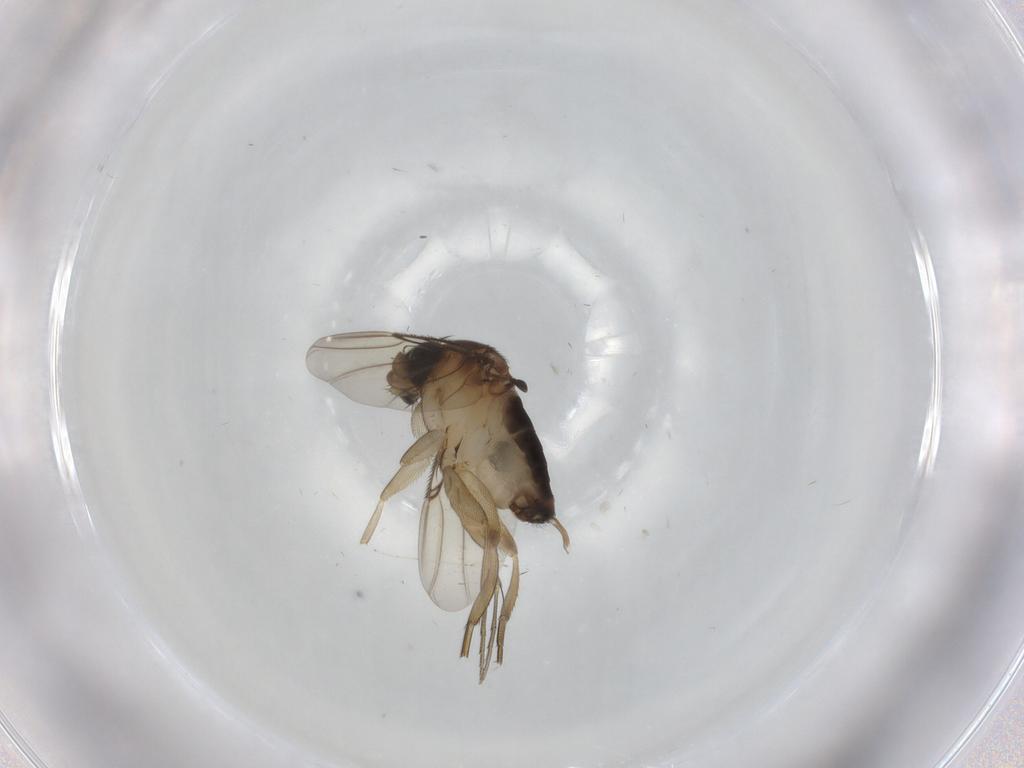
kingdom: Animalia
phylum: Arthropoda
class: Insecta
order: Diptera
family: Phoridae
